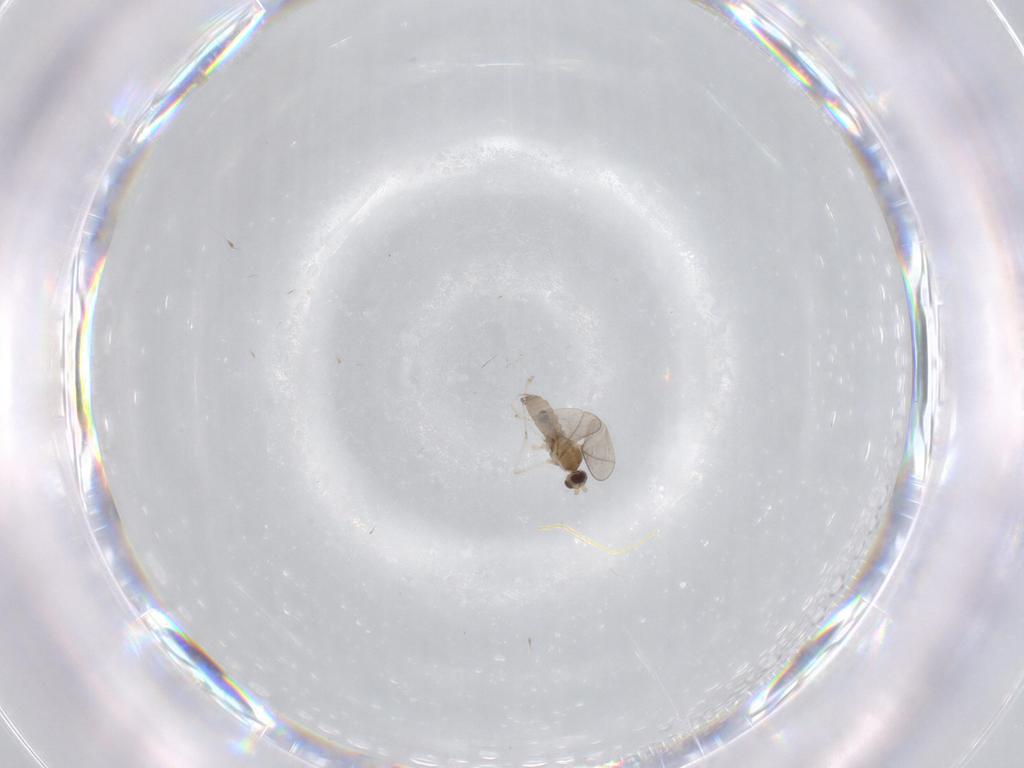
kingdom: Animalia
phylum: Arthropoda
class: Insecta
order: Diptera
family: Cecidomyiidae
